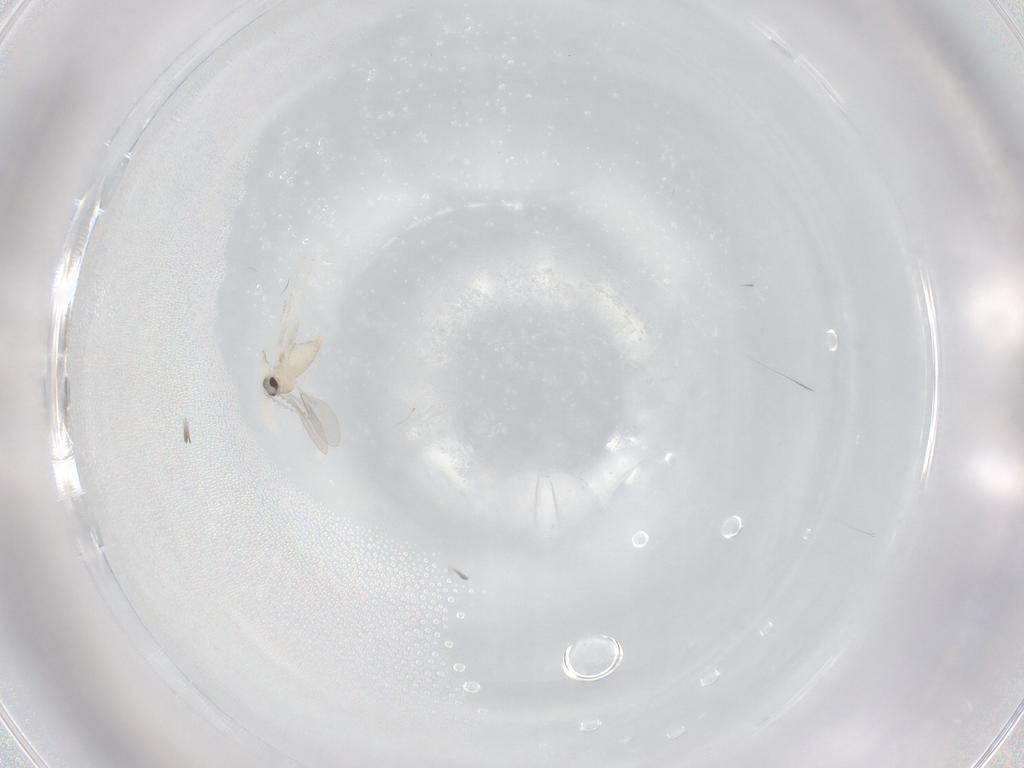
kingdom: Animalia
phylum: Arthropoda
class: Insecta
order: Diptera
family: Cecidomyiidae
